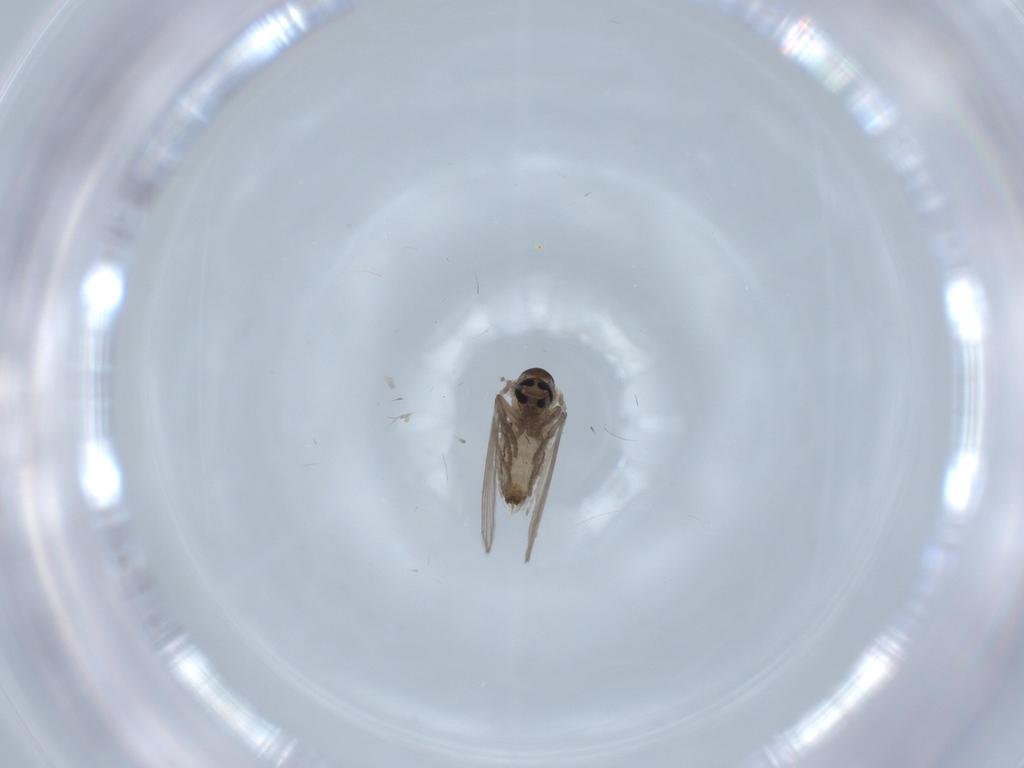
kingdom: Animalia
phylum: Arthropoda
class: Insecta
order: Diptera
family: Psychodidae
